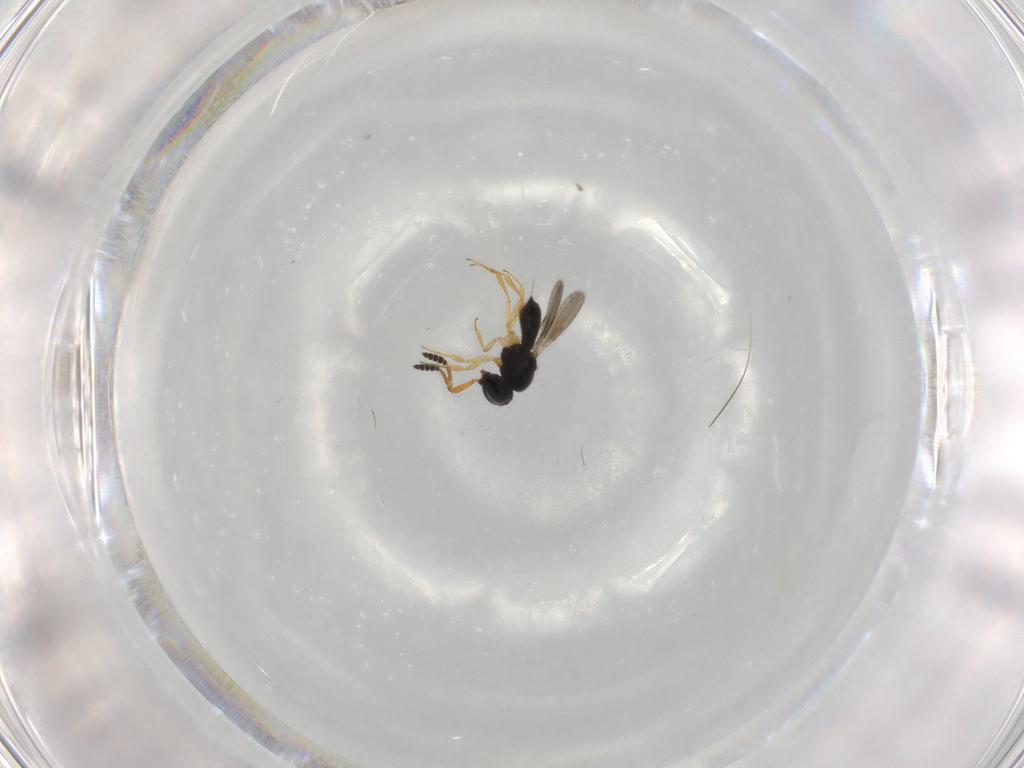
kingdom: Animalia
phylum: Arthropoda
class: Insecta
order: Hymenoptera
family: Scelionidae
